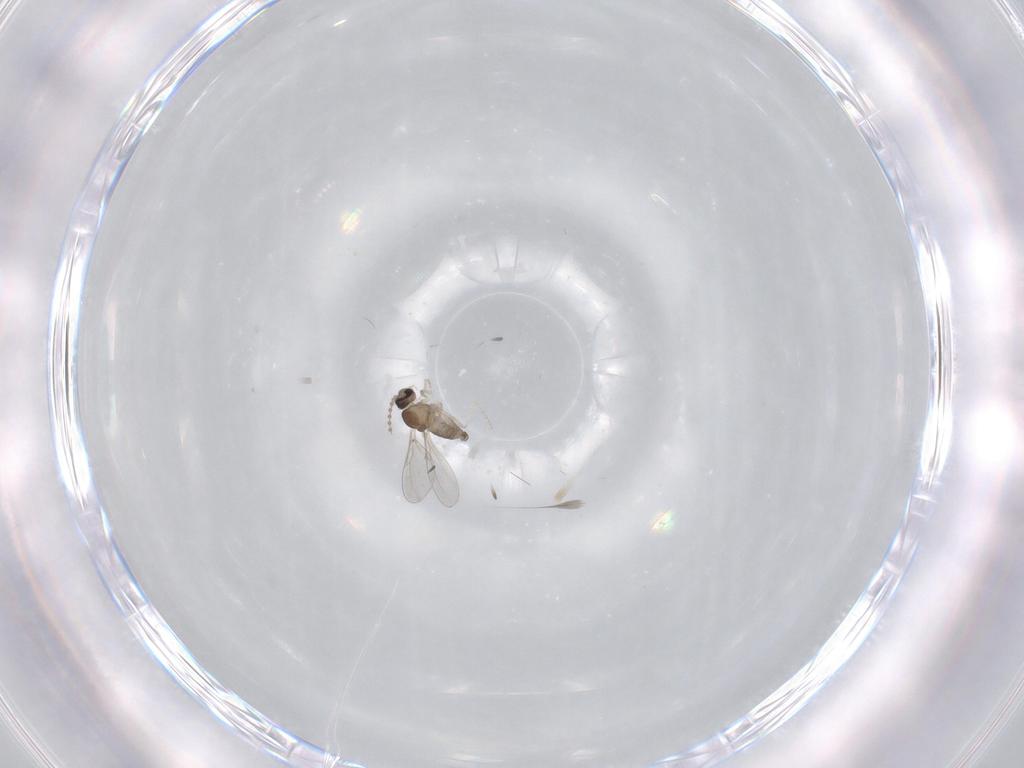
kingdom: Animalia
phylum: Arthropoda
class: Insecta
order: Diptera
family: Cecidomyiidae
